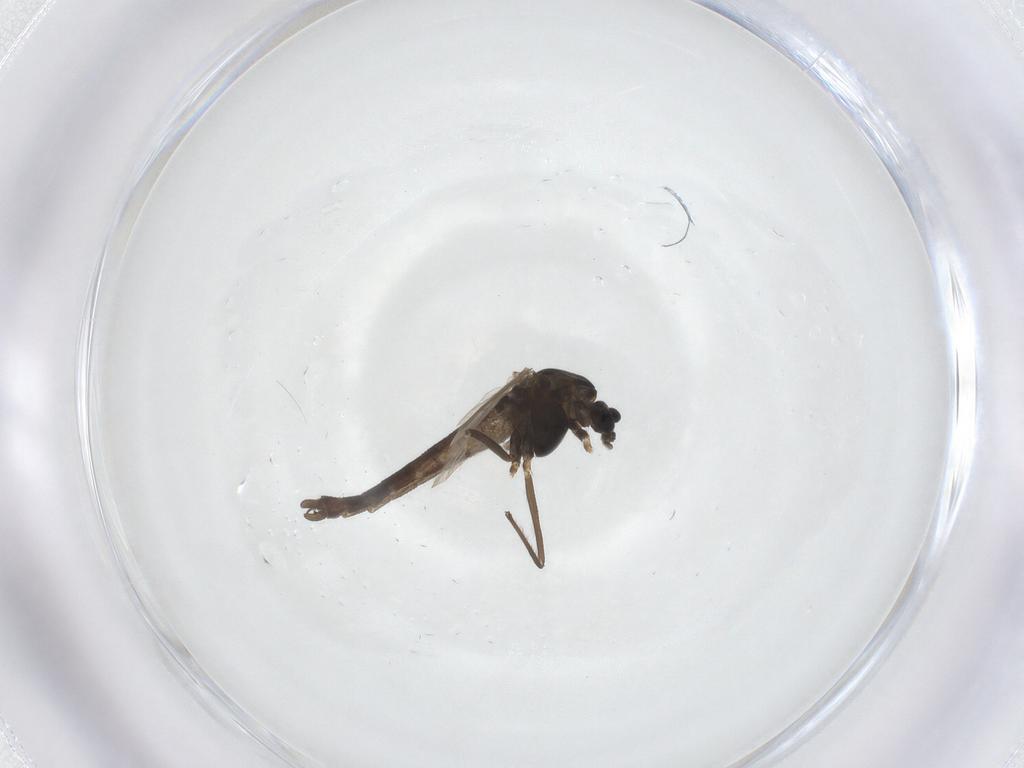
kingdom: Animalia
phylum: Arthropoda
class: Insecta
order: Diptera
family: Chironomidae
